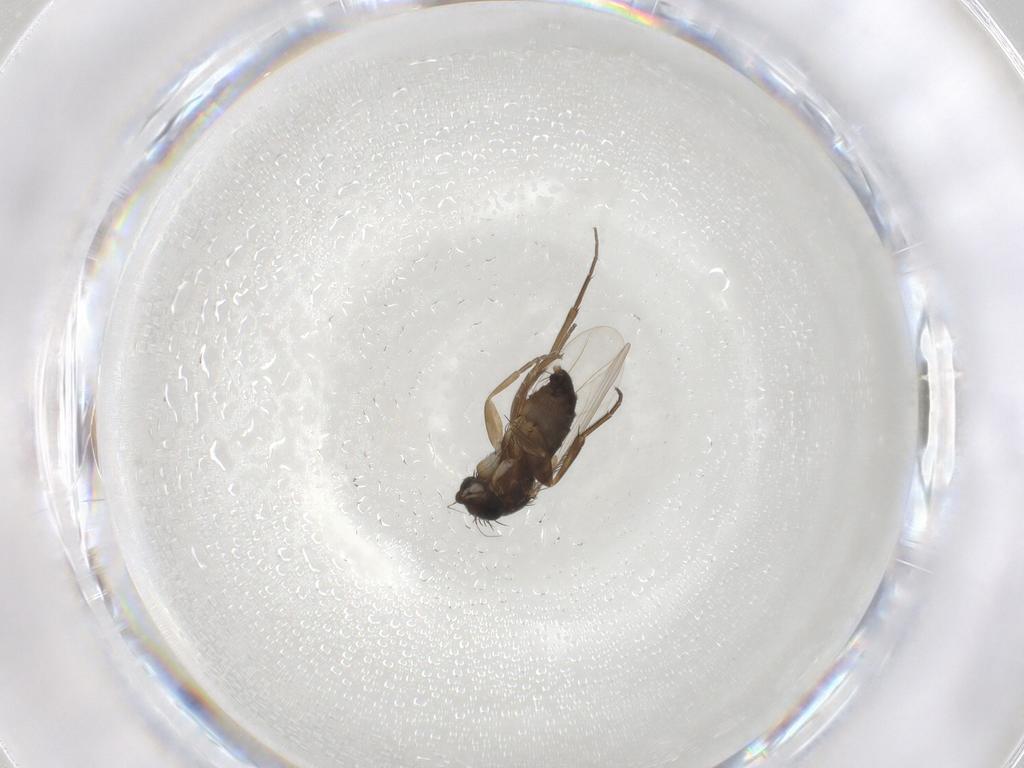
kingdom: Animalia
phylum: Arthropoda
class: Insecta
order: Diptera
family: Phoridae
